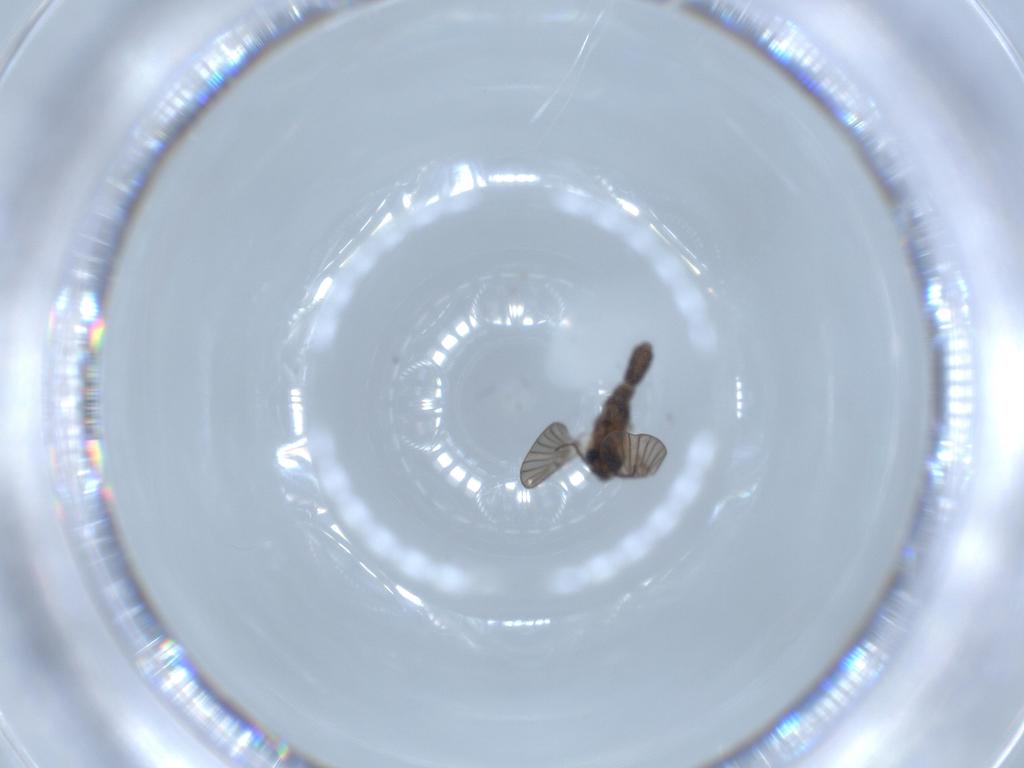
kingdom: Animalia
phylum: Arthropoda
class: Insecta
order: Diptera
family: Psychodidae
